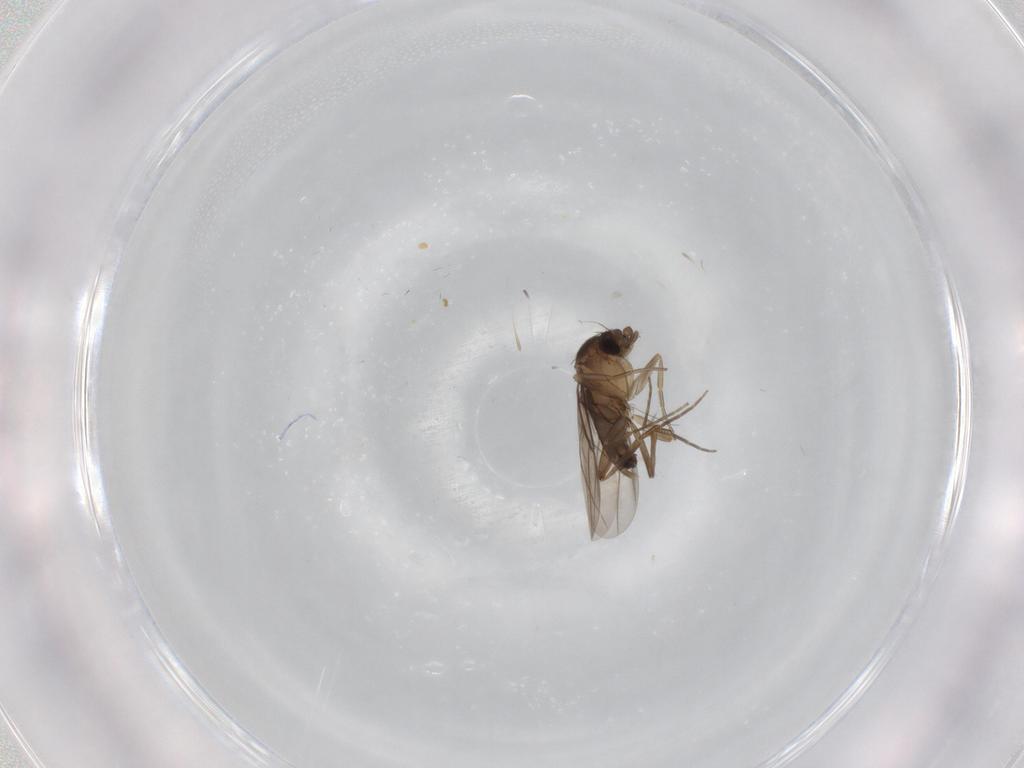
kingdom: Animalia
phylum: Arthropoda
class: Insecta
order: Diptera
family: Phoridae
